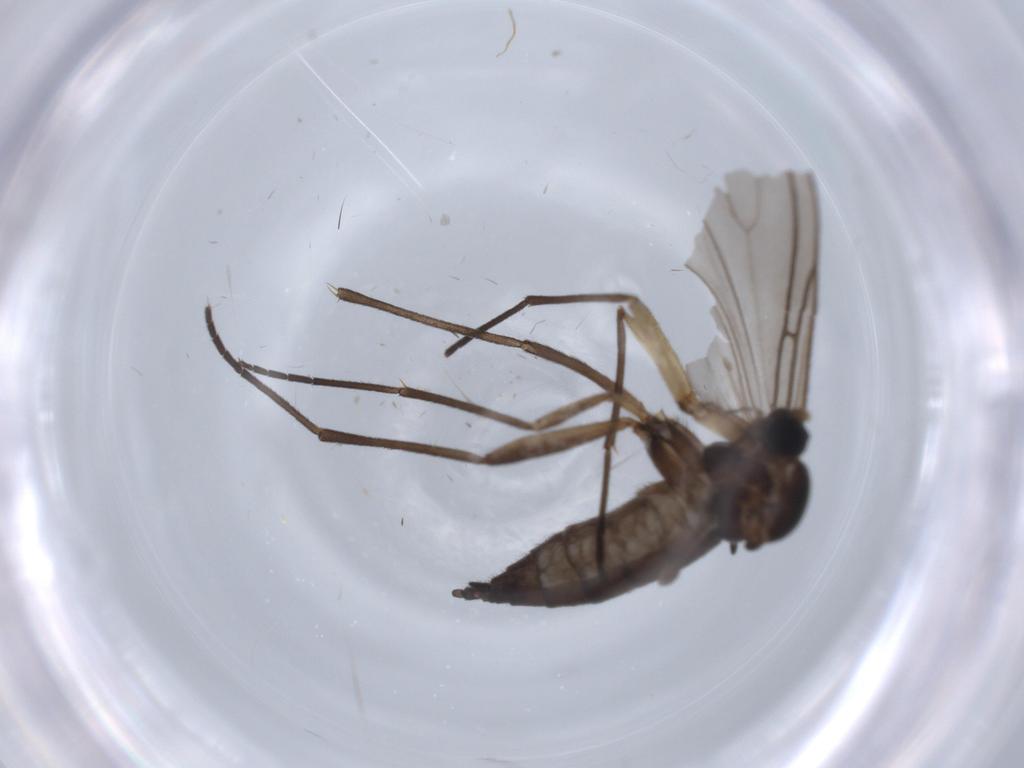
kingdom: Animalia
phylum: Arthropoda
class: Insecta
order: Diptera
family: Sciaridae
